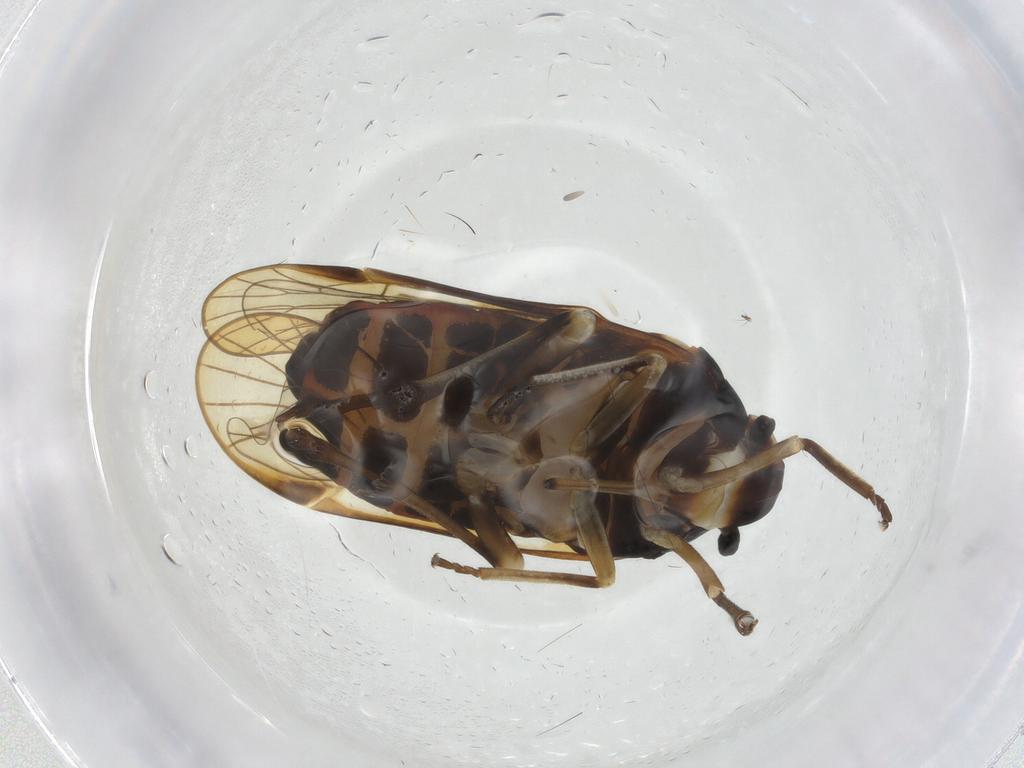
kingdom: Animalia
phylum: Arthropoda
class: Insecta
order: Hemiptera
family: Kinnaridae
